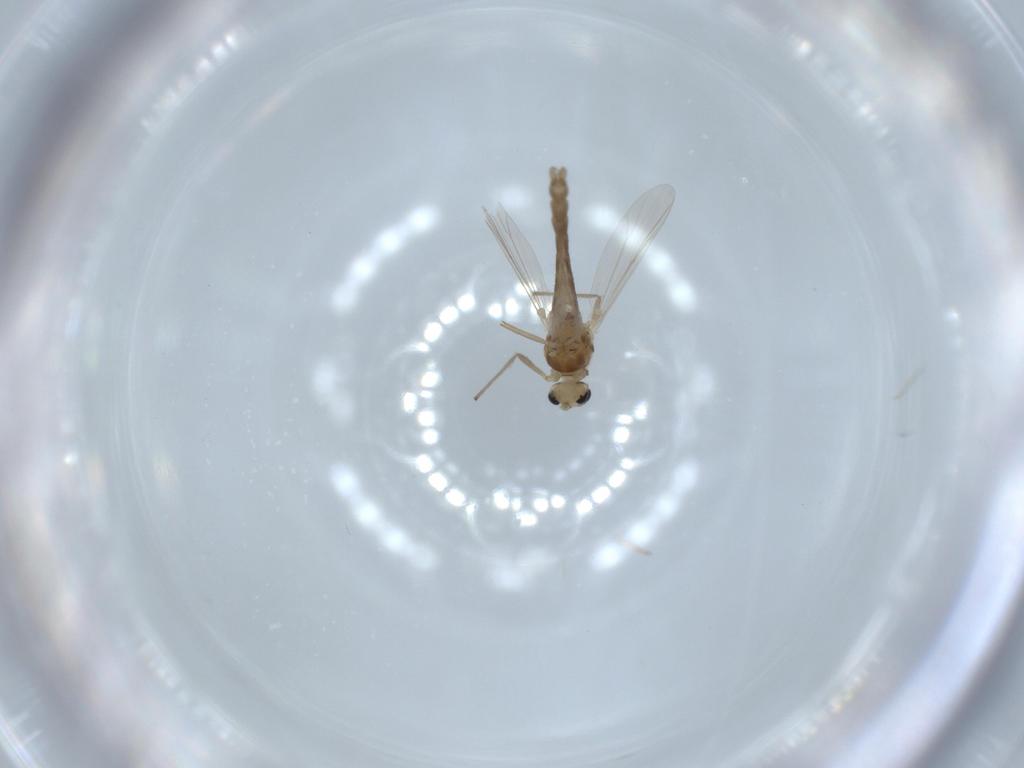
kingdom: Animalia
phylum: Arthropoda
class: Insecta
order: Diptera
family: Chironomidae
